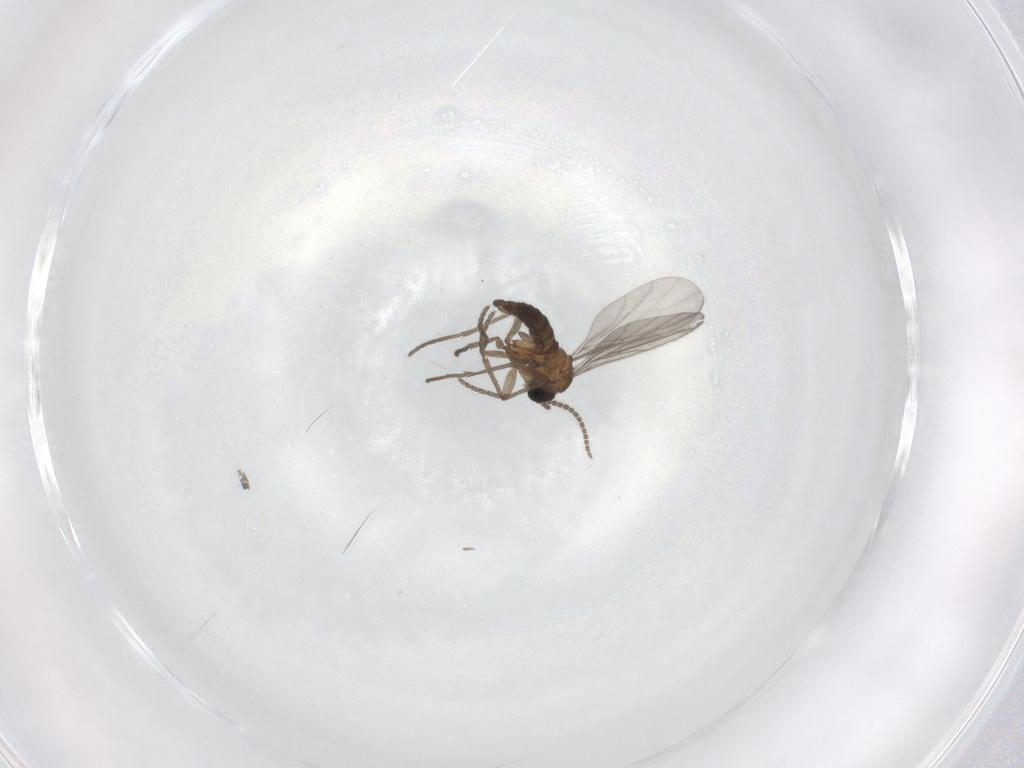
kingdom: Animalia
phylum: Arthropoda
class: Insecta
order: Diptera
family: Sciaridae
